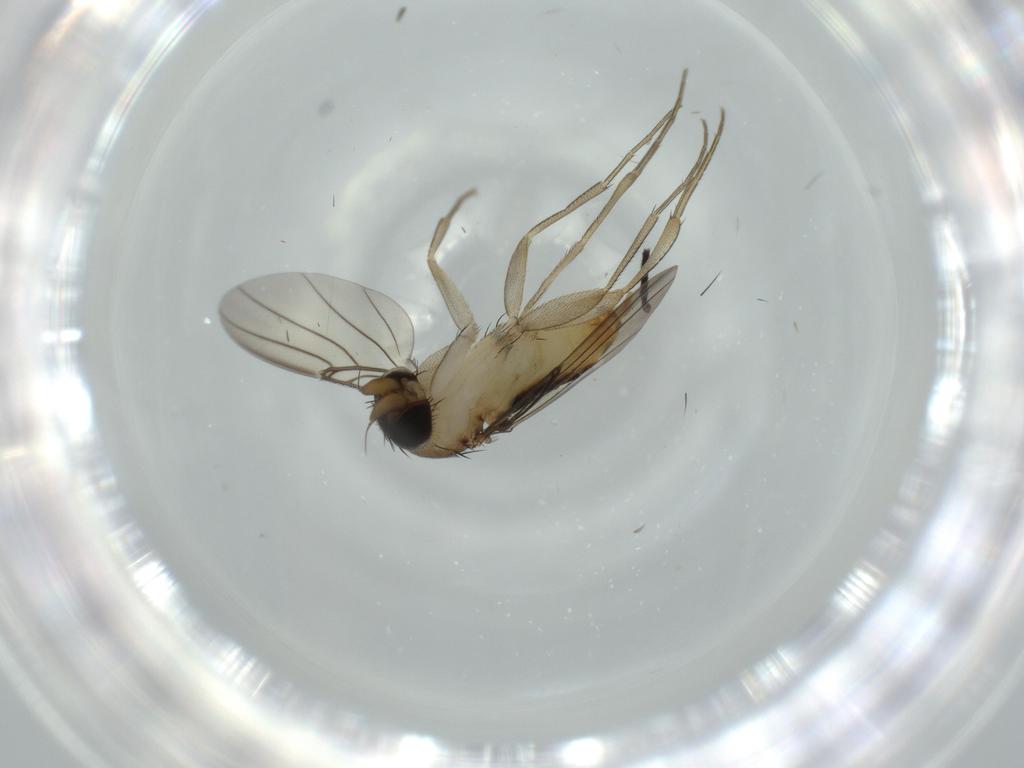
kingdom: Animalia
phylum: Arthropoda
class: Insecta
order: Diptera
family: Phoridae
